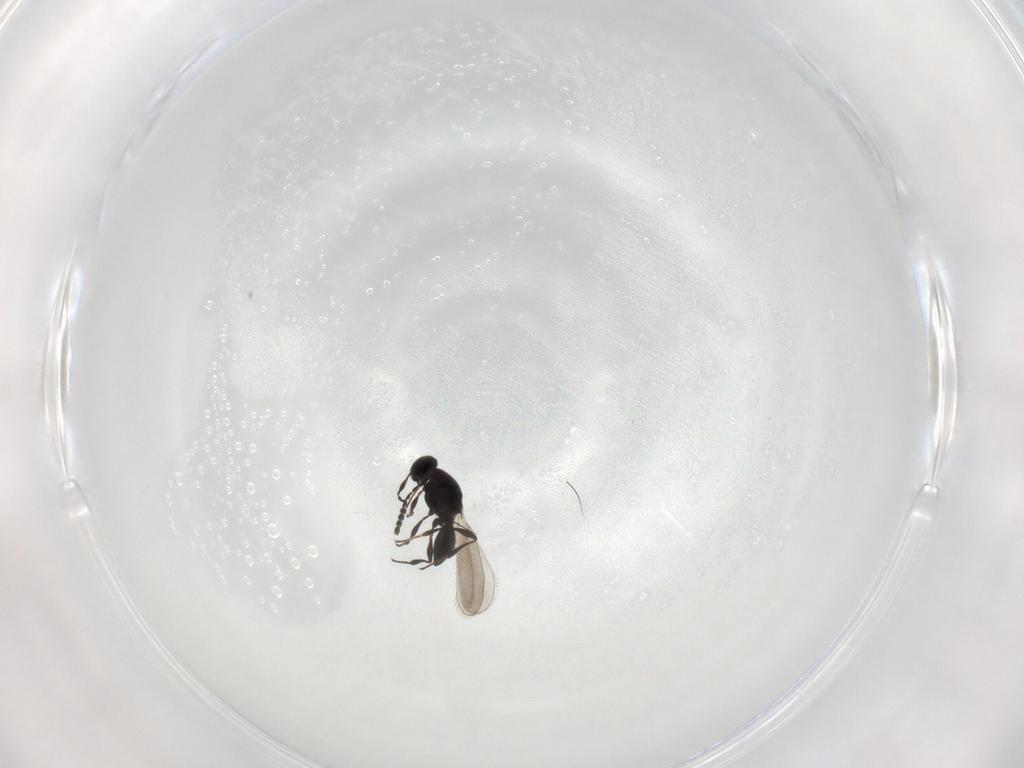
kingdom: Animalia
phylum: Arthropoda
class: Insecta
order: Hymenoptera
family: Platygastridae
